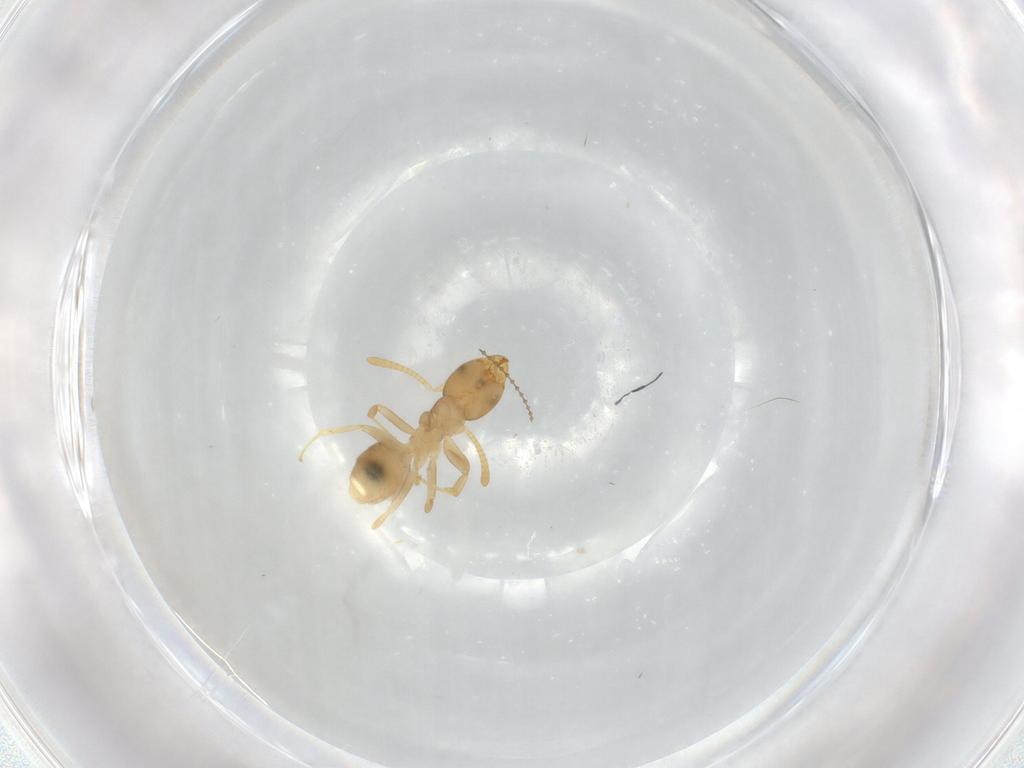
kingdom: Animalia
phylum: Arthropoda
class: Insecta
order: Hymenoptera
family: Formicidae
